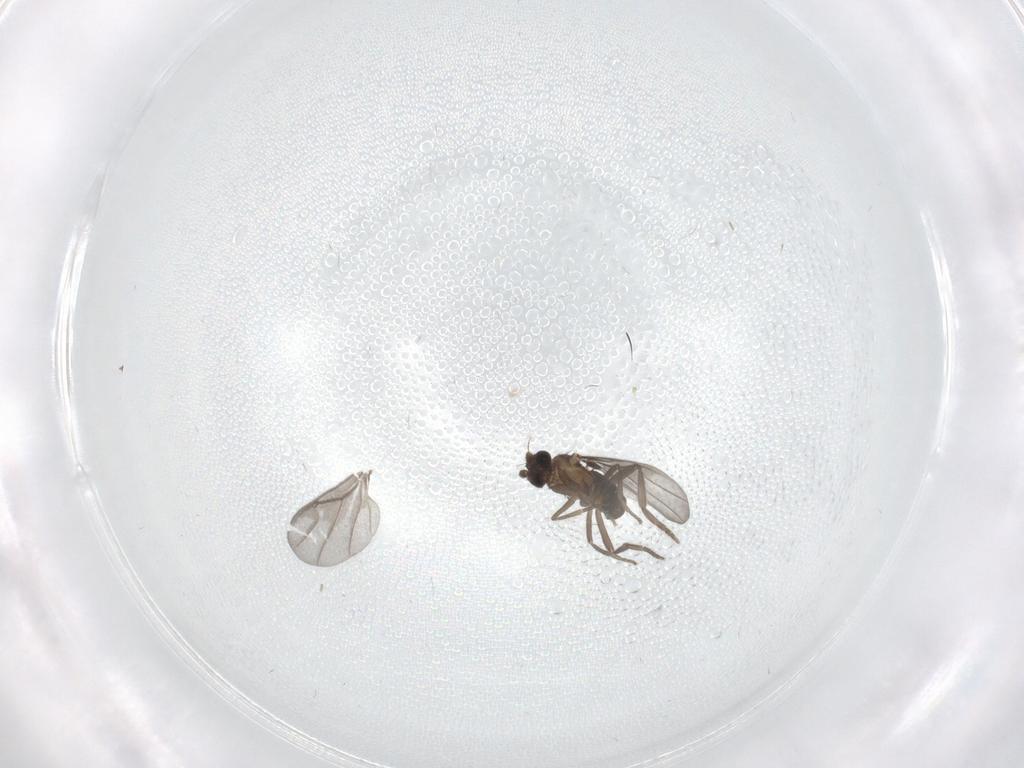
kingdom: Animalia
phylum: Arthropoda
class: Insecta
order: Diptera
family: Chironomidae
